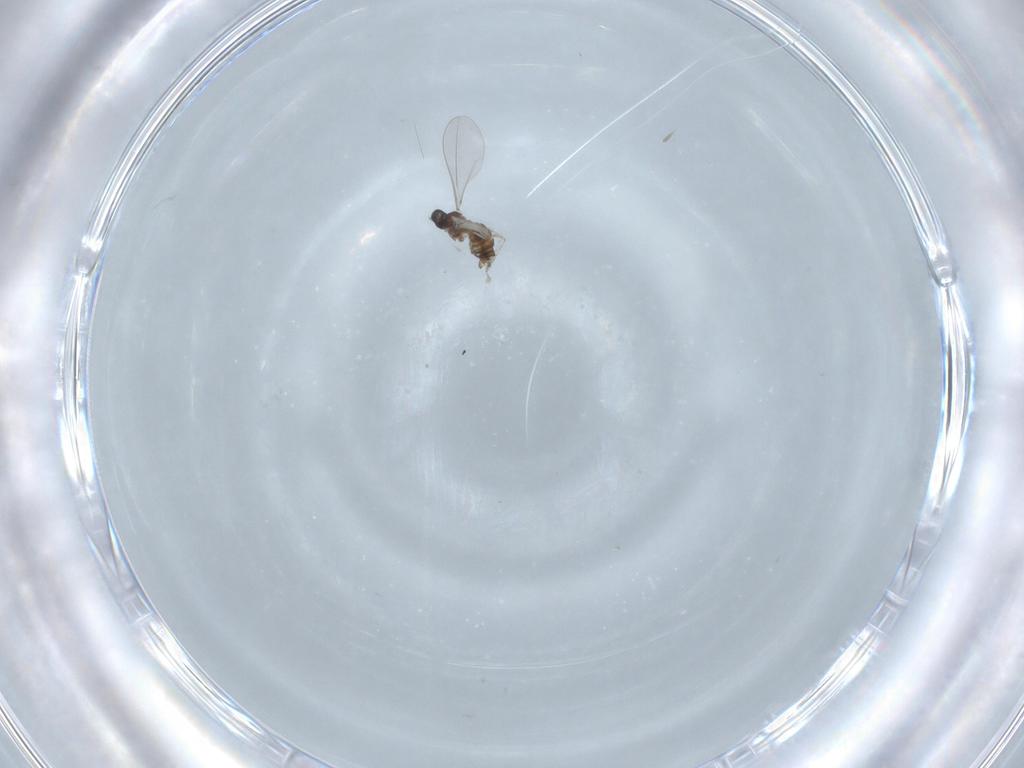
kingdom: Animalia
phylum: Arthropoda
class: Insecta
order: Diptera
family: Cecidomyiidae
